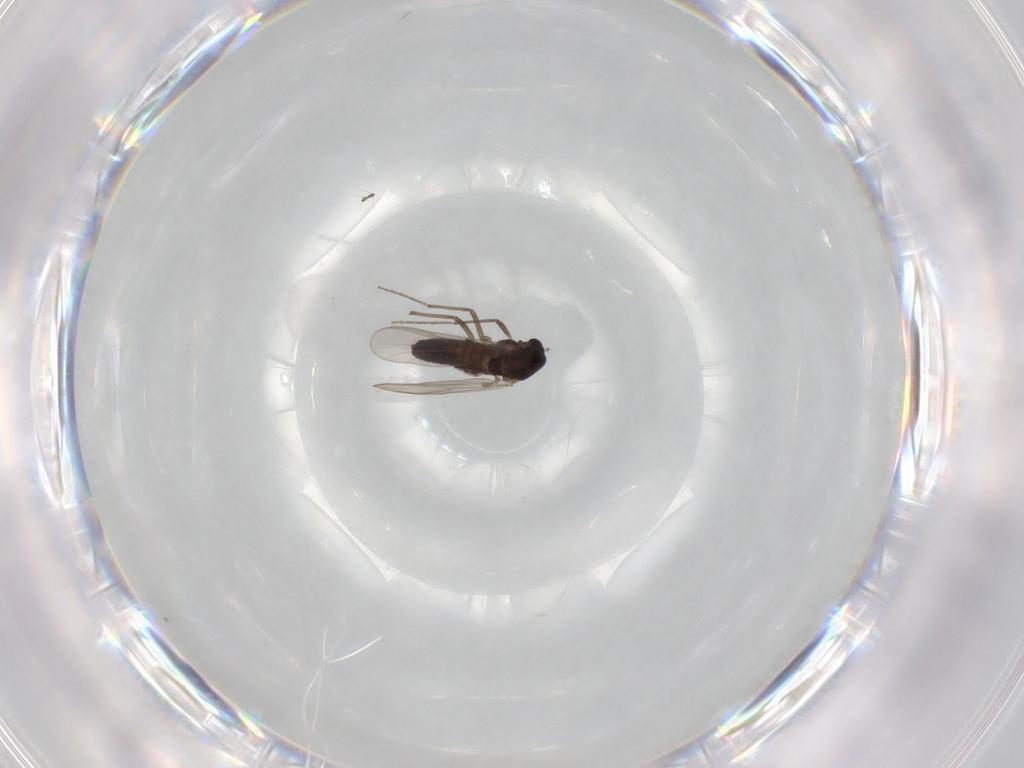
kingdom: Animalia
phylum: Arthropoda
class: Insecta
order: Diptera
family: Chironomidae
